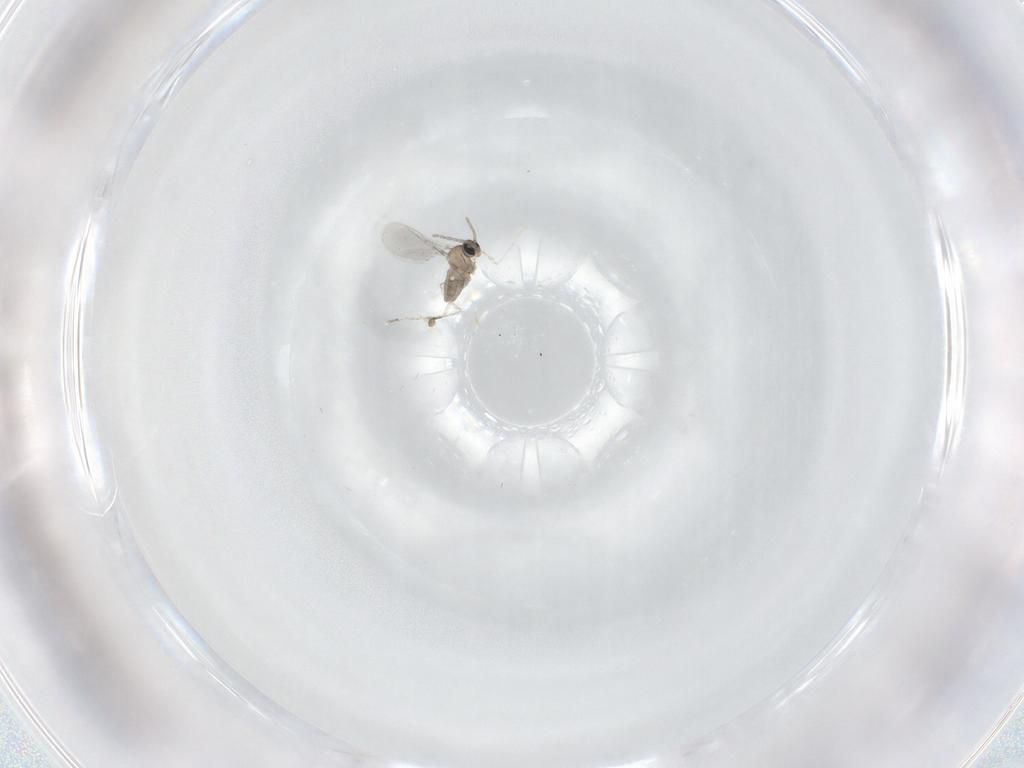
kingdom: Animalia
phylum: Arthropoda
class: Insecta
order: Diptera
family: Cecidomyiidae
